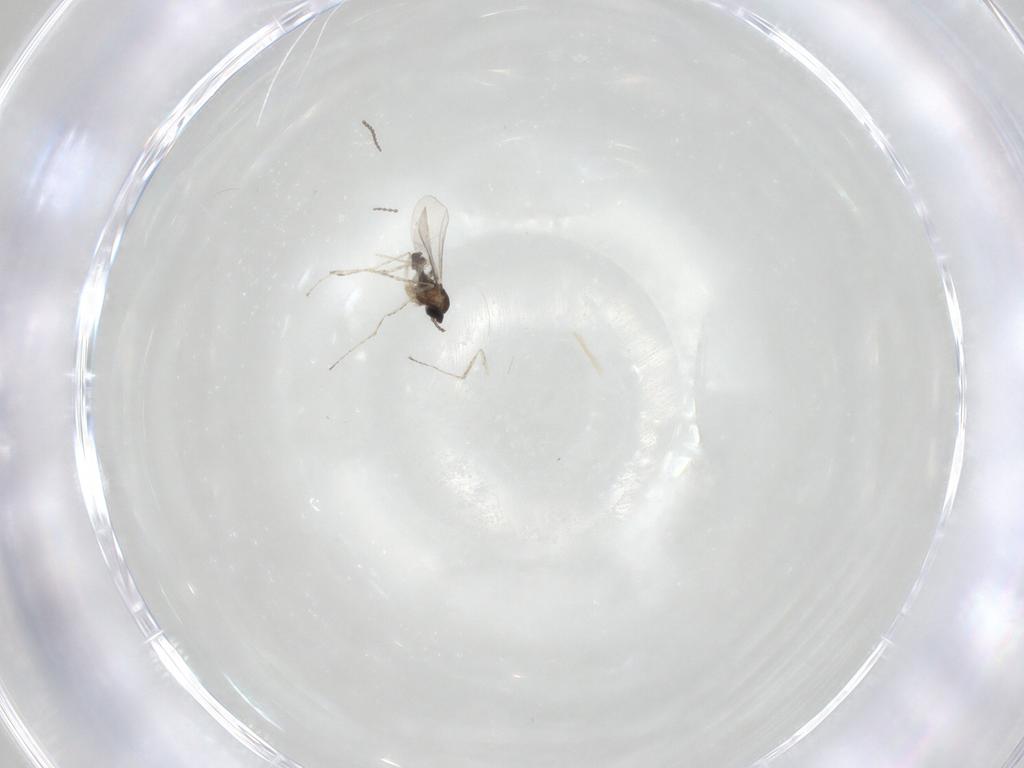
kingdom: Animalia
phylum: Arthropoda
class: Insecta
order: Diptera
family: Cecidomyiidae
